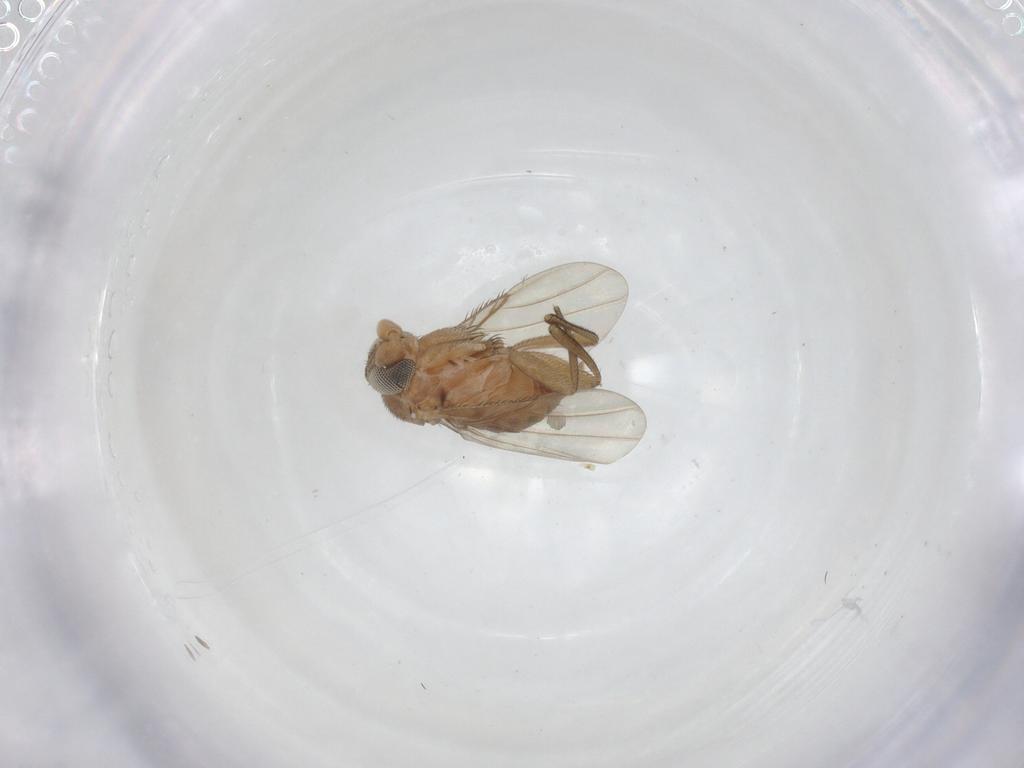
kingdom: Animalia
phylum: Arthropoda
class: Insecta
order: Diptera
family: Phoridae
